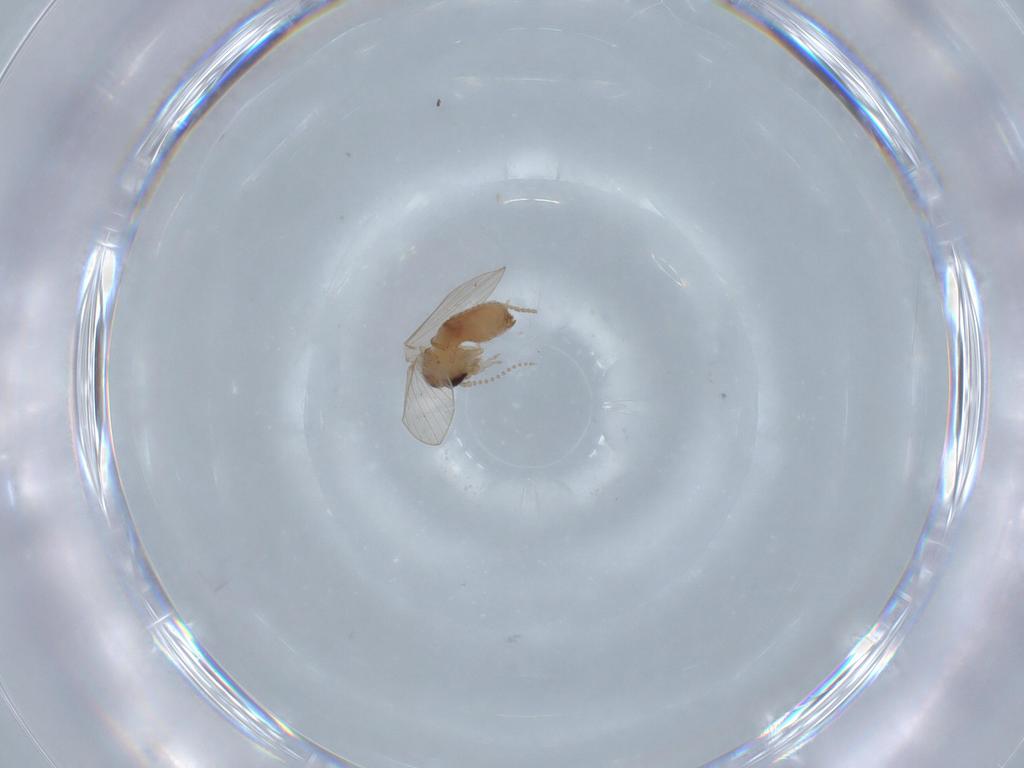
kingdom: Animalia
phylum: Arthropoda
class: Insecta
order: Diptera
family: Psychodidae
